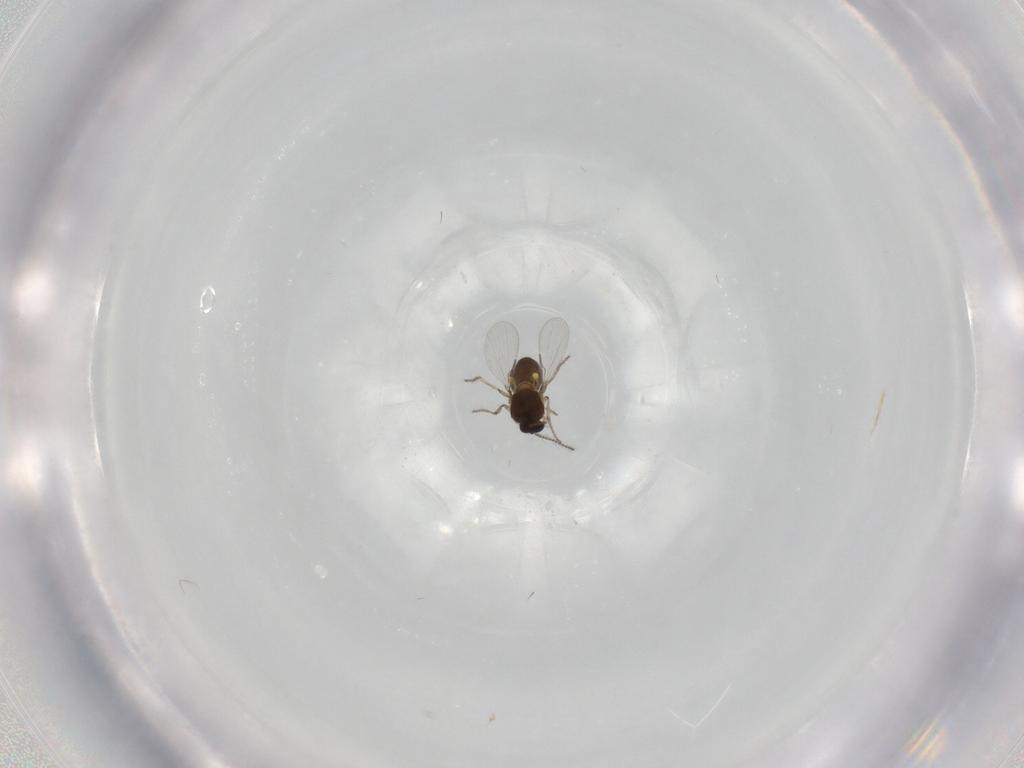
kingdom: Animalia
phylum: Arthropoda
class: Insecta
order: Diptera
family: Ceratopogonidae
